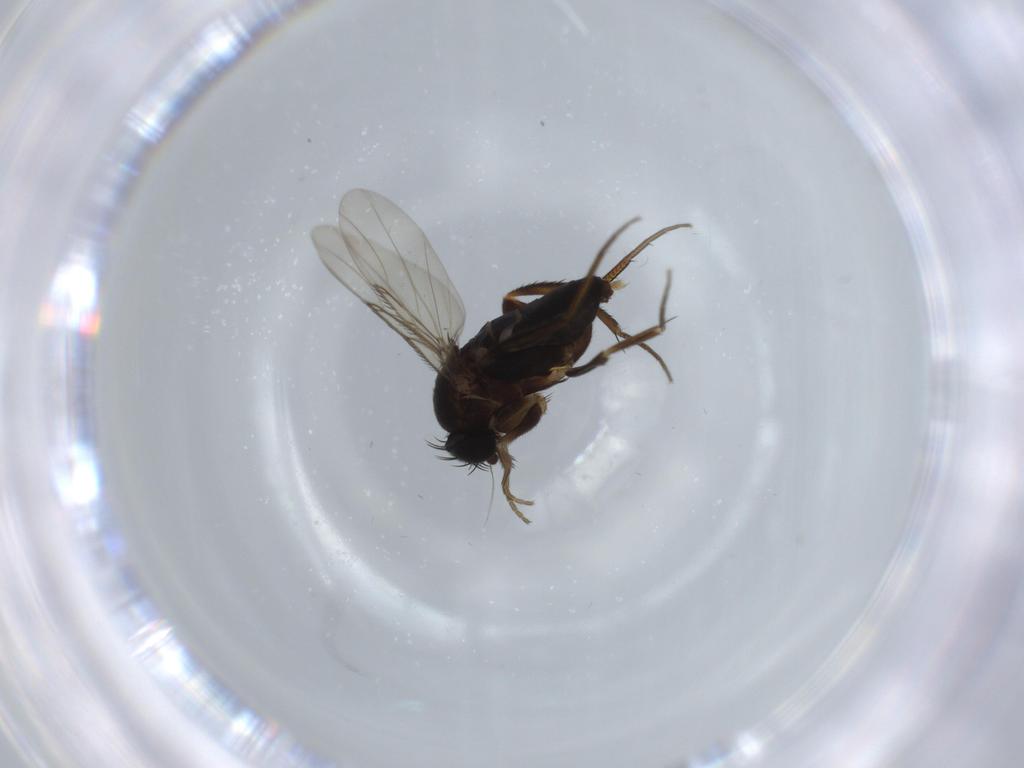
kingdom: Animalia
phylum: Arthropoda
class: Insecta
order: Diptera
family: Phoridae
